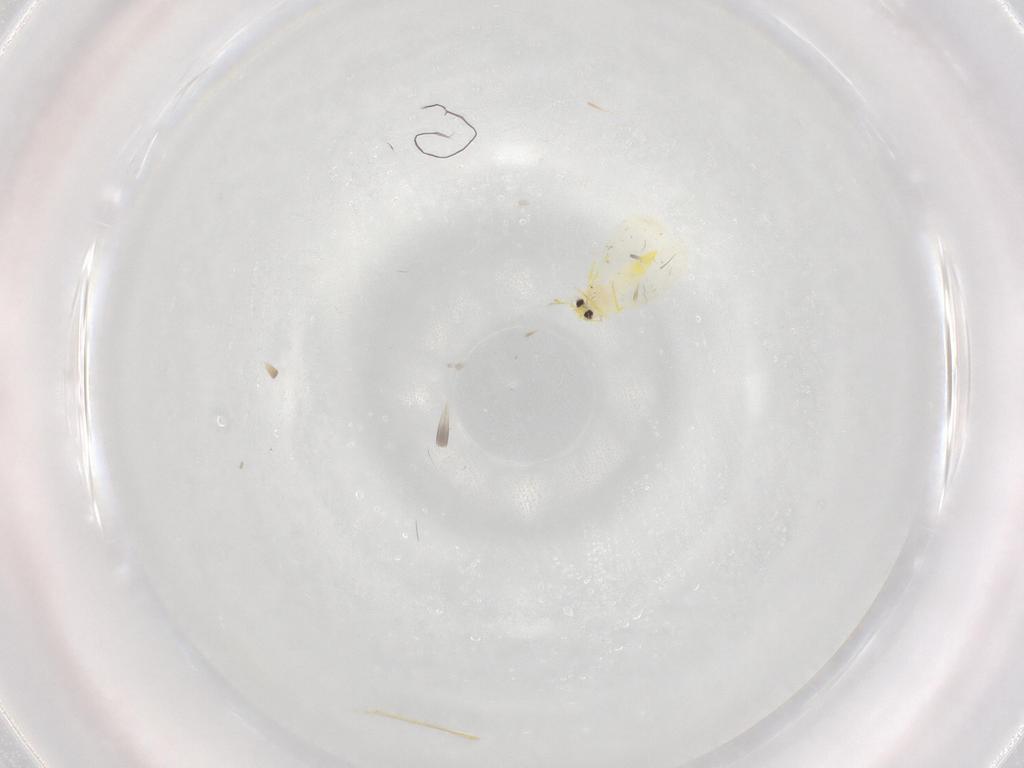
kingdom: Animalia
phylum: Arthropoda
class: Insecta
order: Hemiptera
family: Aleyrodidae
